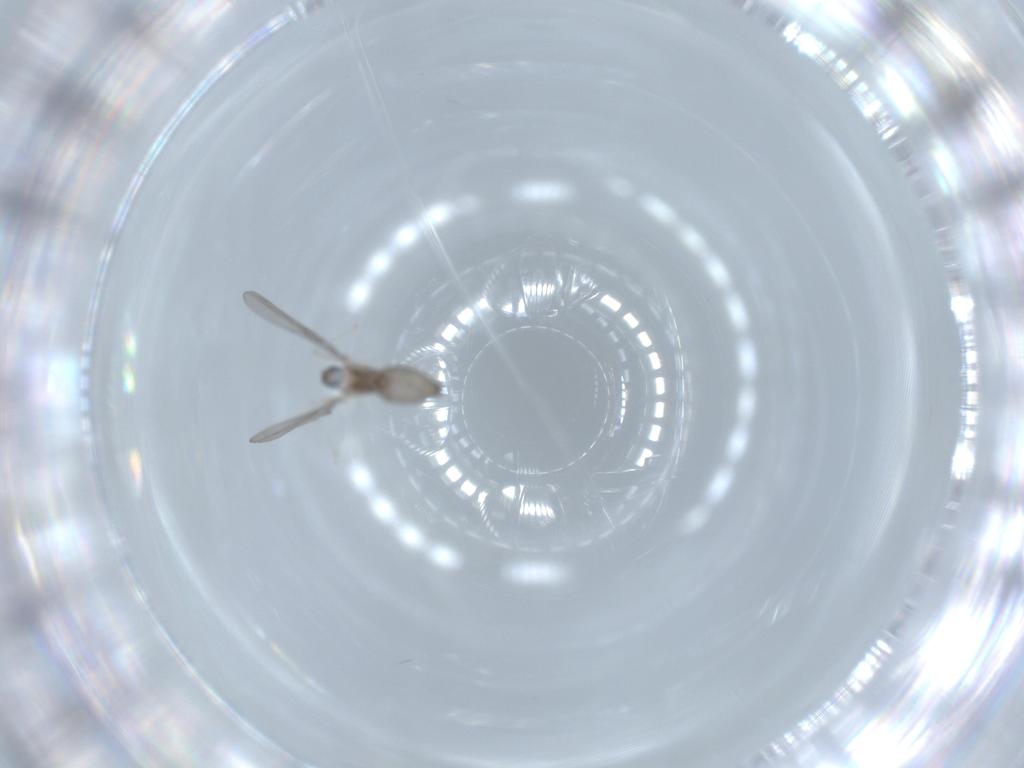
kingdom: Animalia
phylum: Arthropoda
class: Insecta
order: Diptera
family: Cecidomyiidae
